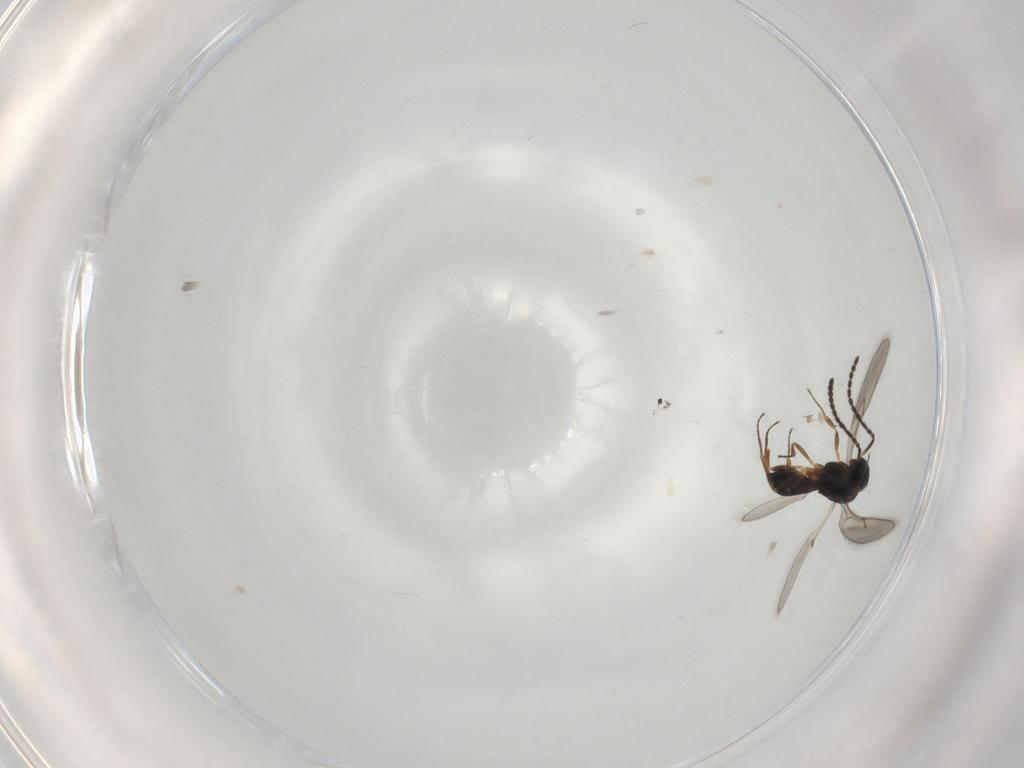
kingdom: Animalia
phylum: Arthropoda
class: Insecta
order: Hymenoptera
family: Scelionidae
